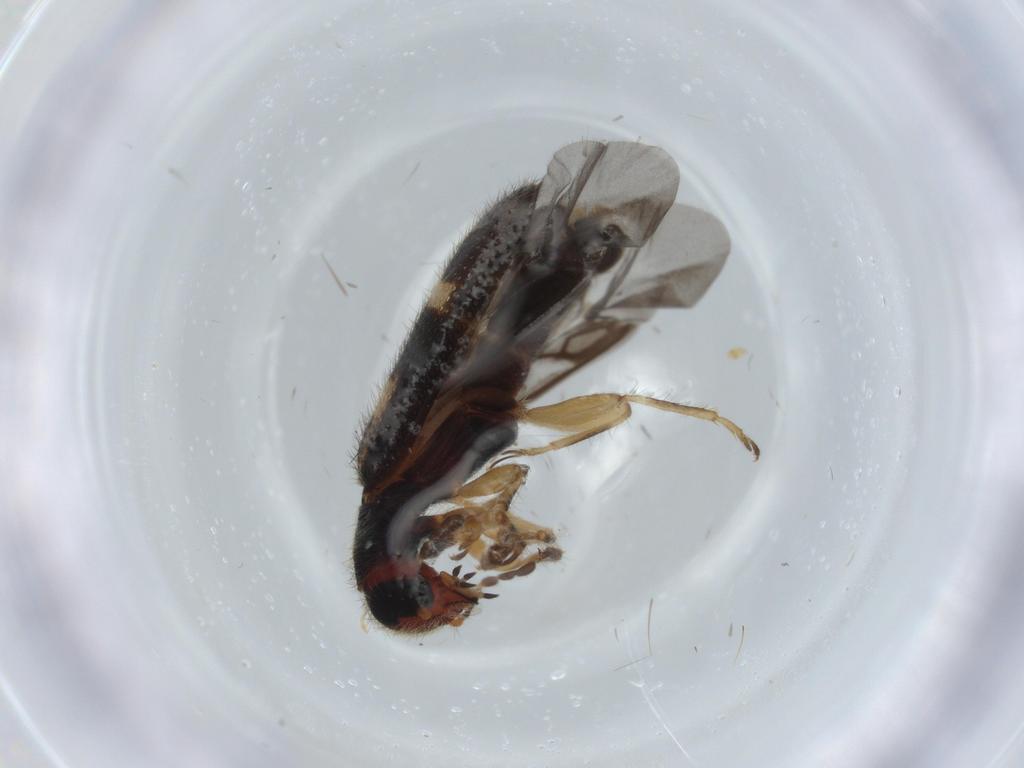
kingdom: Animalia
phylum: Arthropoda
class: Insecta
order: Coleoptera
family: Cleridae
